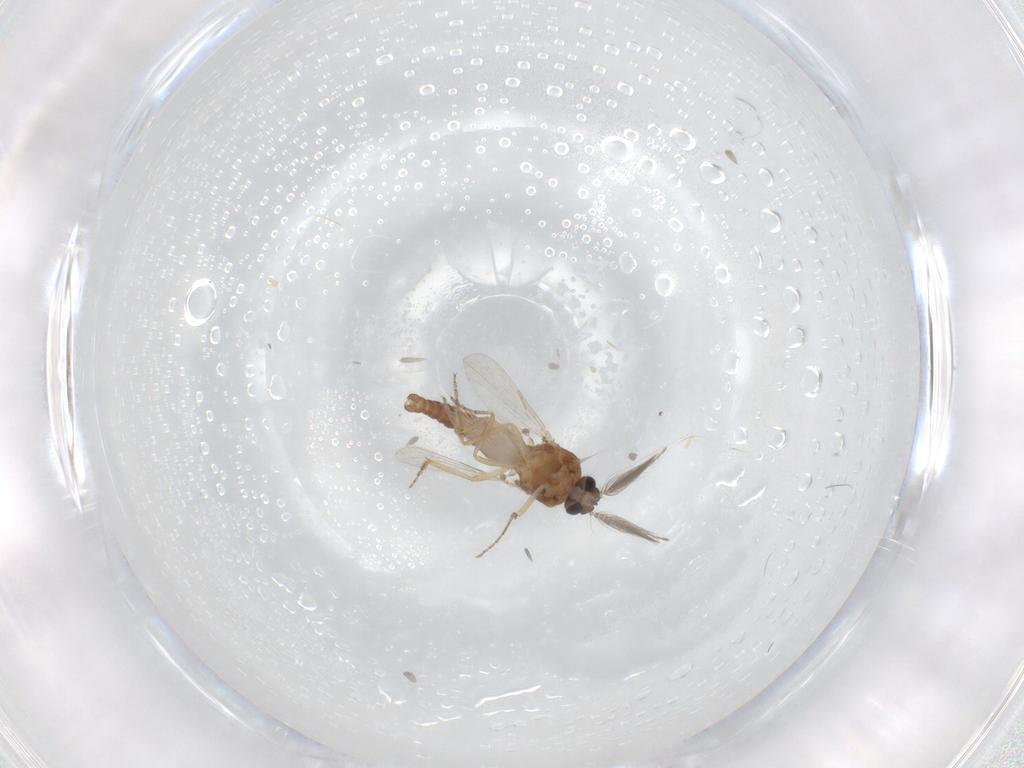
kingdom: Animalia
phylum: Arthropoda
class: Insecta
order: Diptera
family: Ceratopogonidae
